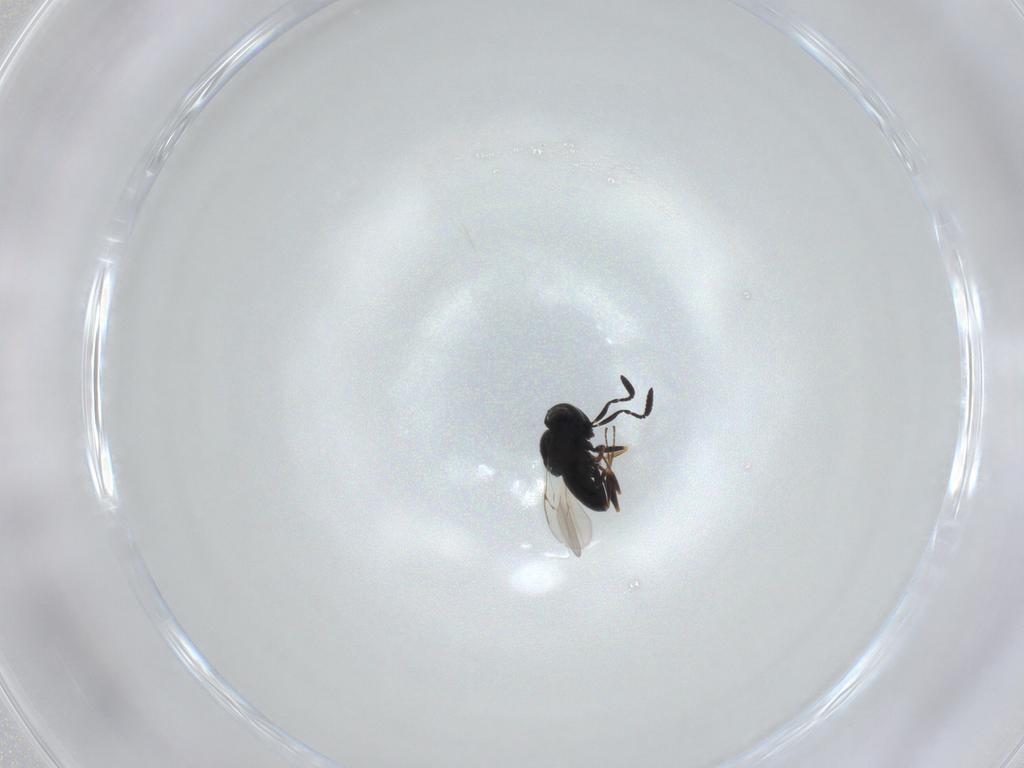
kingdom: Animalia
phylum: Arthropoda
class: Insecta
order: Hymenoptera
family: Scelionidae
